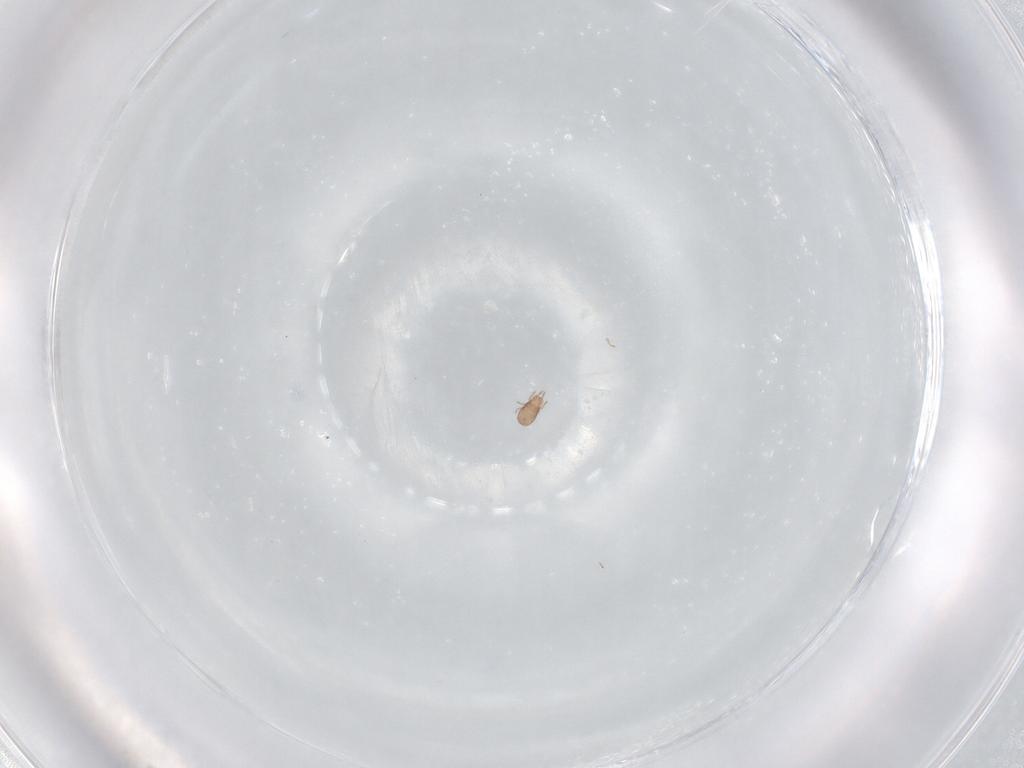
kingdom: Animalia
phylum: Arthropoda
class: Arachnida
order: Sarcoptiformes
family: Eremaeidae
